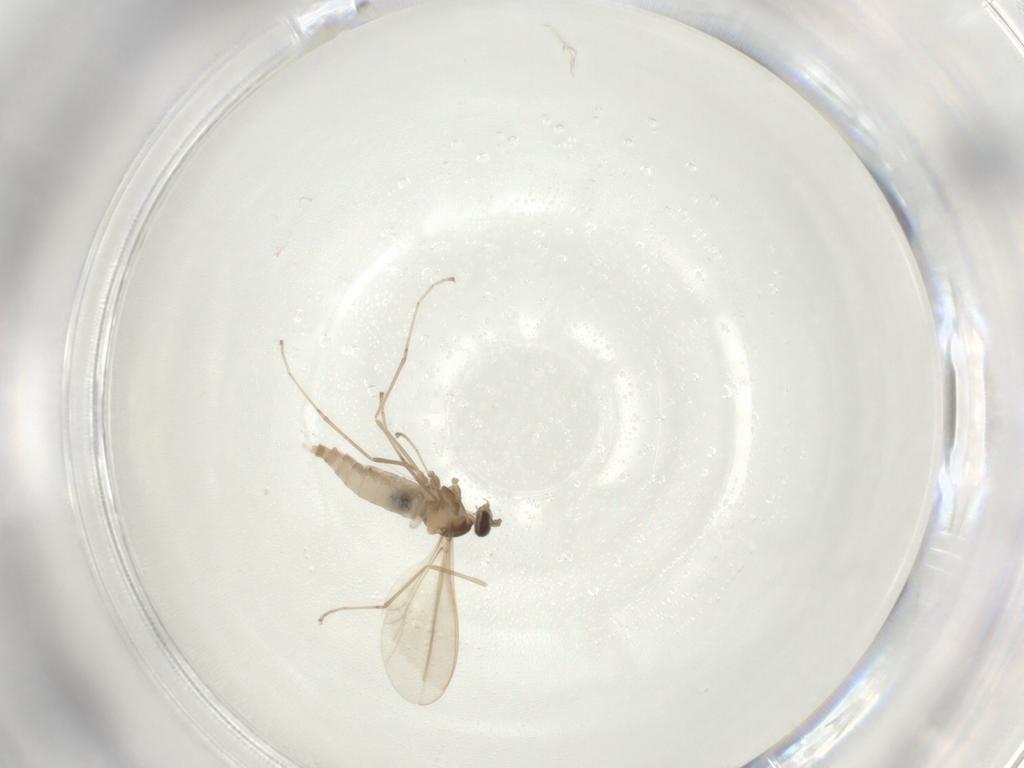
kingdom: Animalia
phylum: Arthropoda
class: Insecta
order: Diptera
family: Cecidomyiidae
